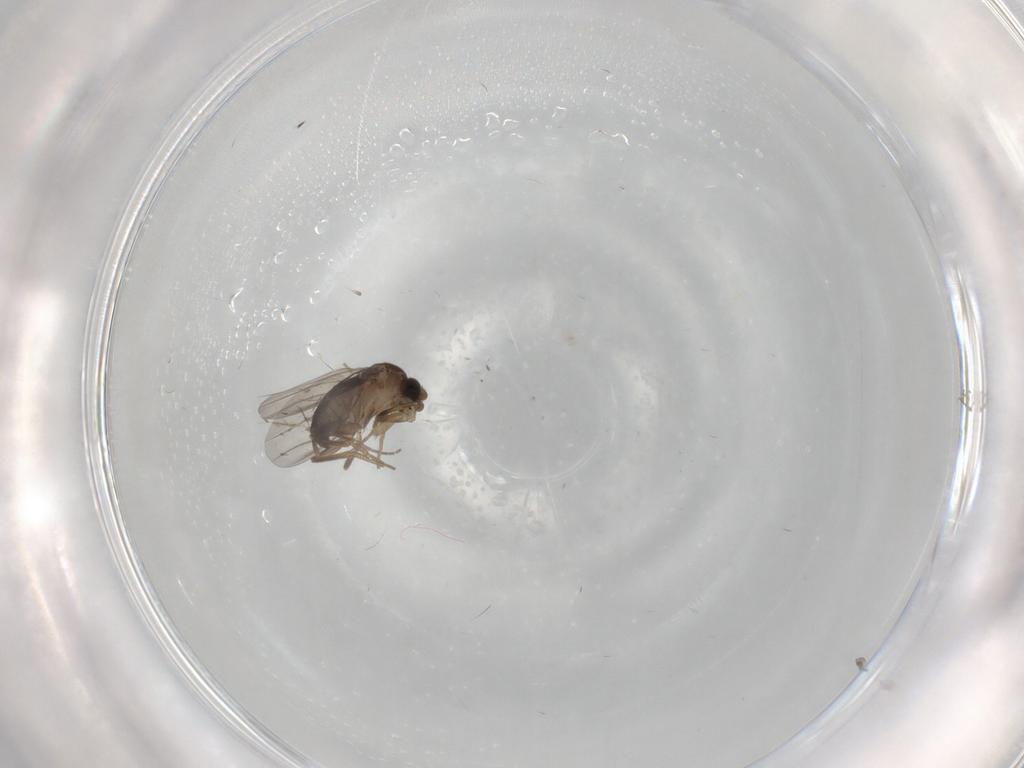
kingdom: Animalia
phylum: Arthropoda
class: Insecta
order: Diptera
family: Phoridae
